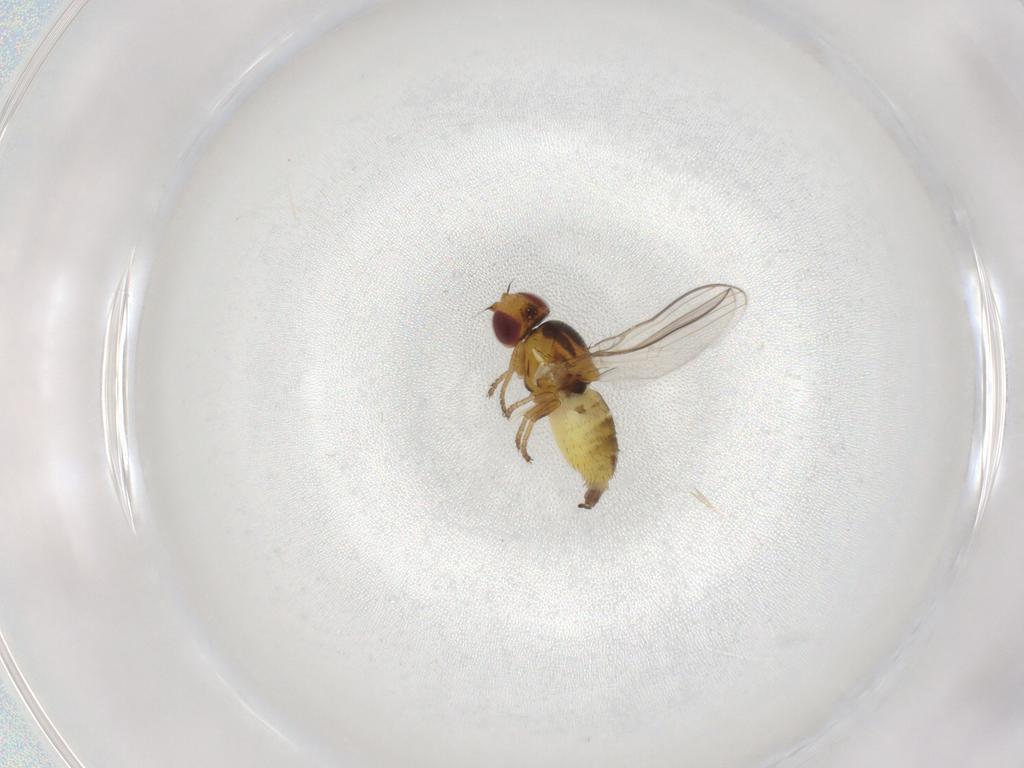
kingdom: Animalia
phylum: Arthropoda
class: Insecta
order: Diptera
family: Chloropidae
